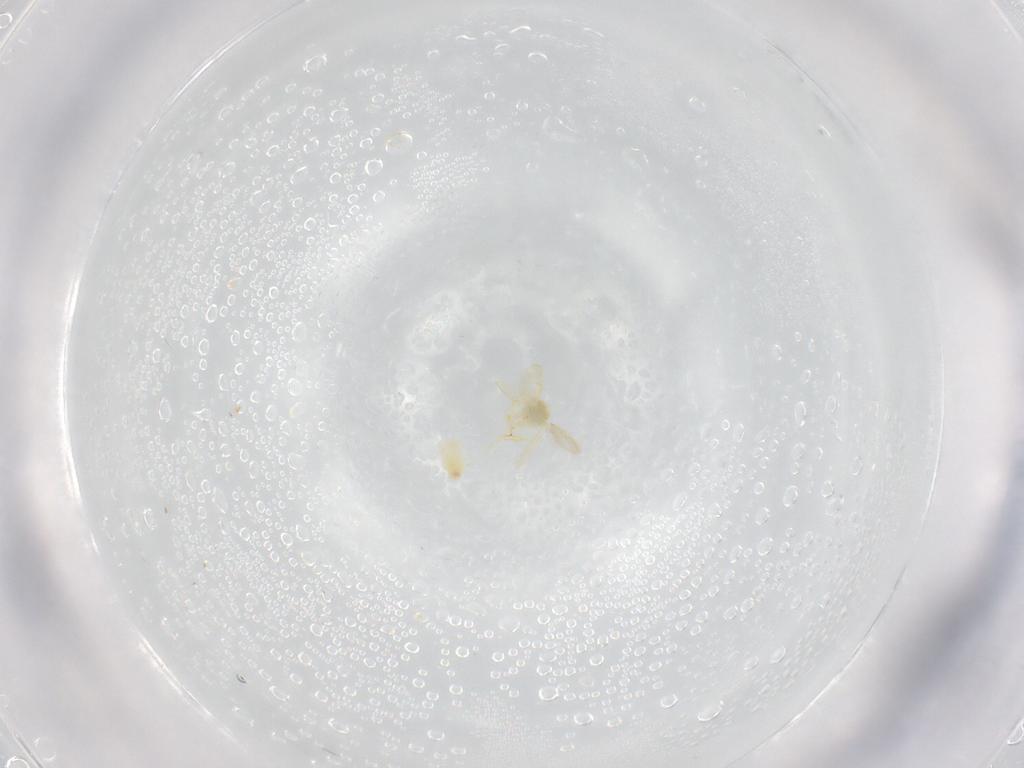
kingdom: Animalia
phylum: Arthropoda
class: Insecta
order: Hemiptera
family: Aleyrodidae
